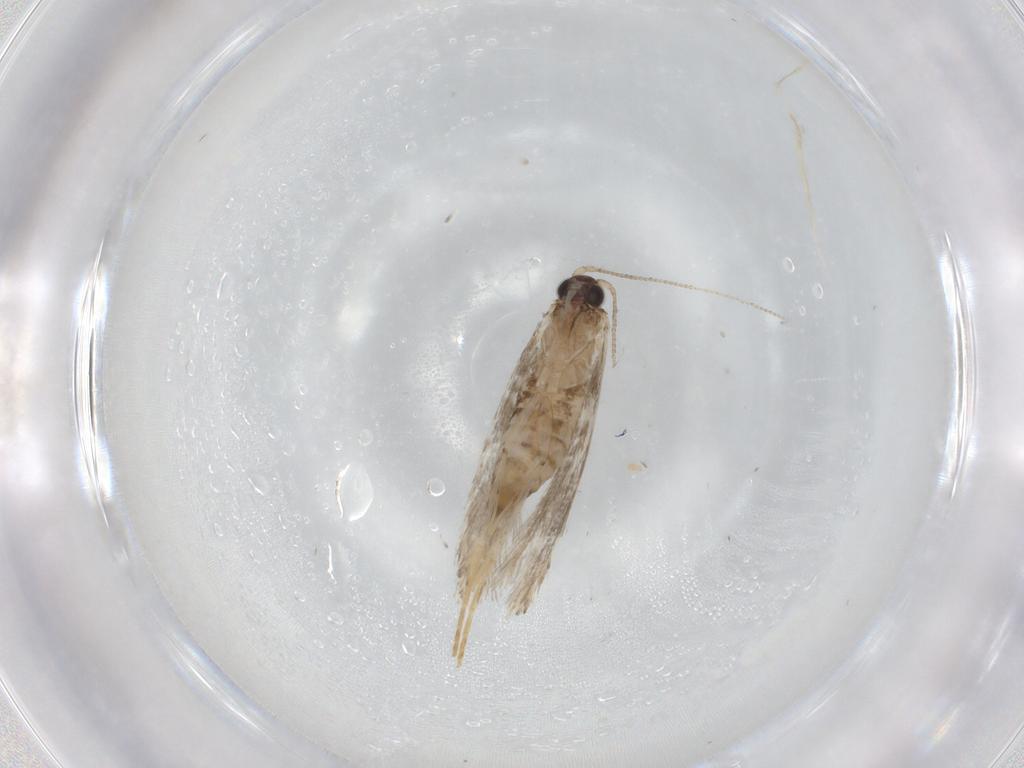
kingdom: Animalia
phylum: Arthropoda
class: Insecta
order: Lepidoptera
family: Tineidae
